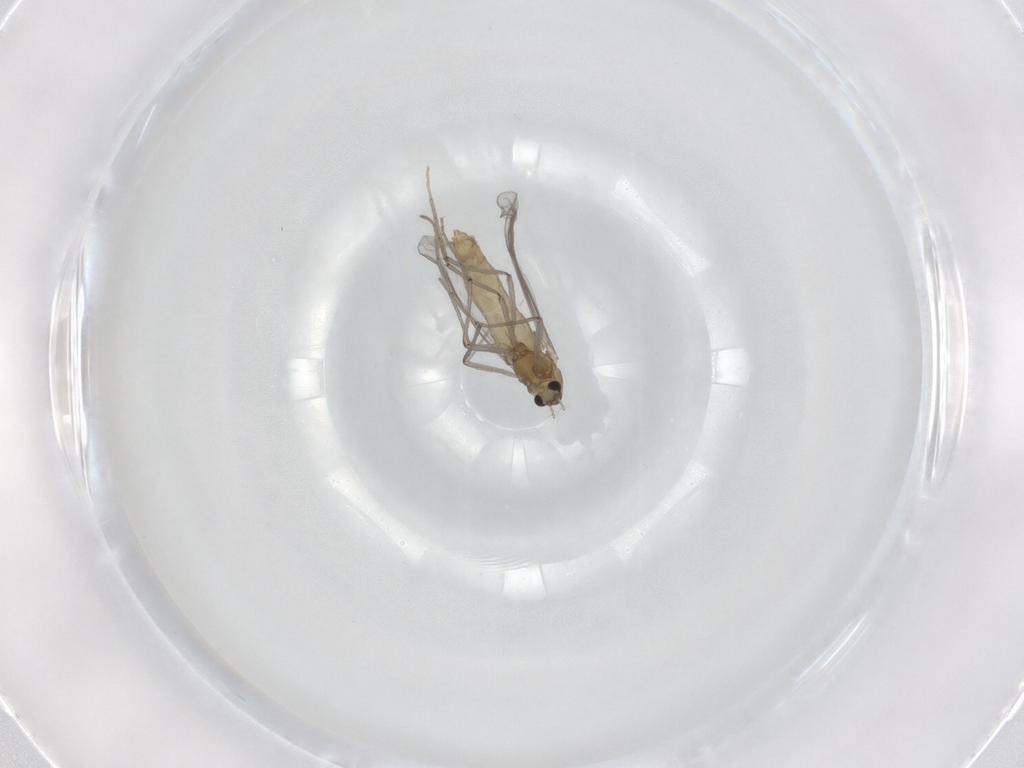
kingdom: Animalia
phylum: Arthropoda
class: Insecta
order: Diptera
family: Chironomidae
